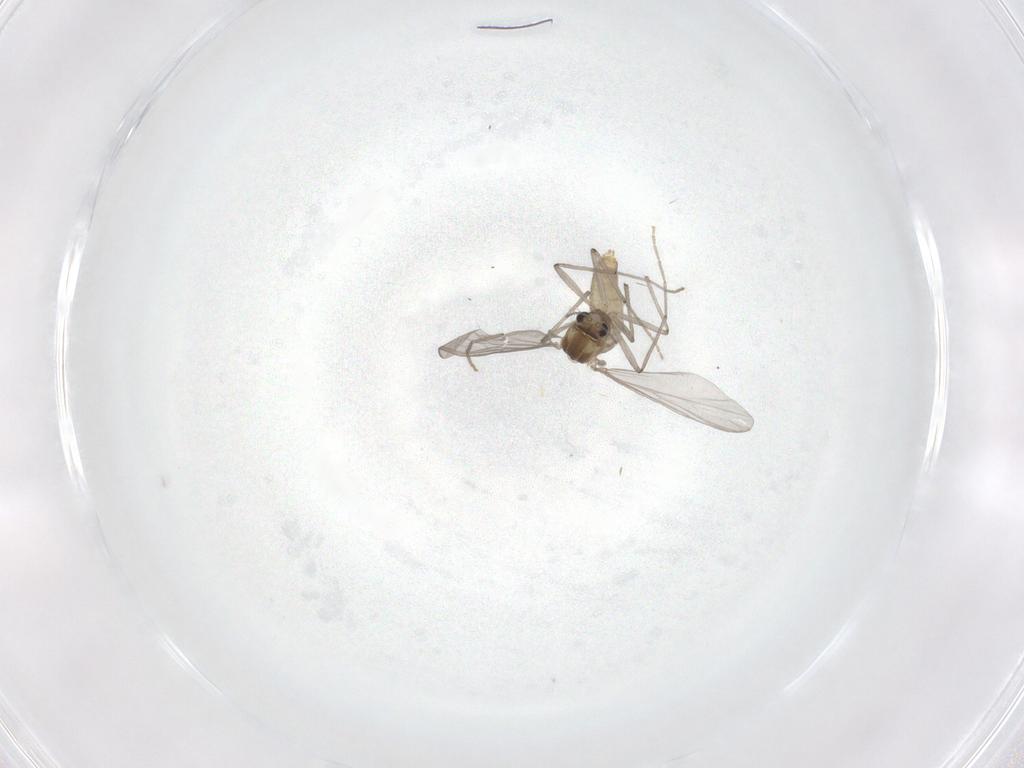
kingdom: Animalia
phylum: Arthropoda
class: Insecta
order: Diptera
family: Chironomidae
